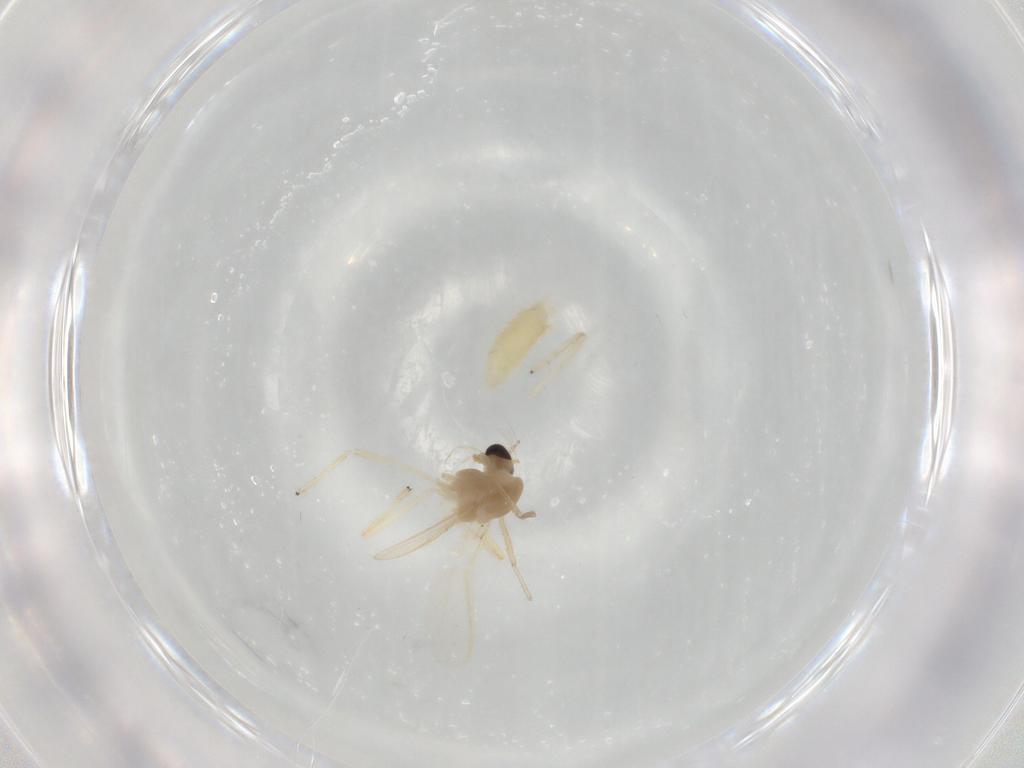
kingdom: Animalia
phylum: Arthropoda
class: Insecta
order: Diptera
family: Chironomidae
